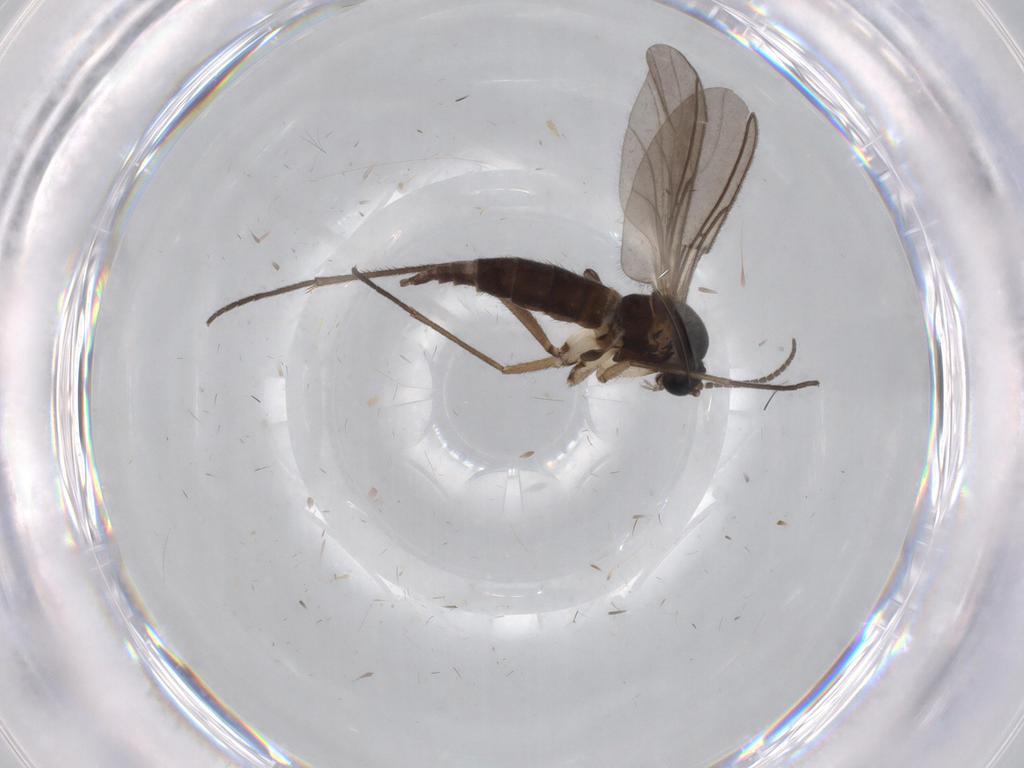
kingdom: Animalia
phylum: Arthropoda
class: Insecta
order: Diptera
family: Sciaridae
